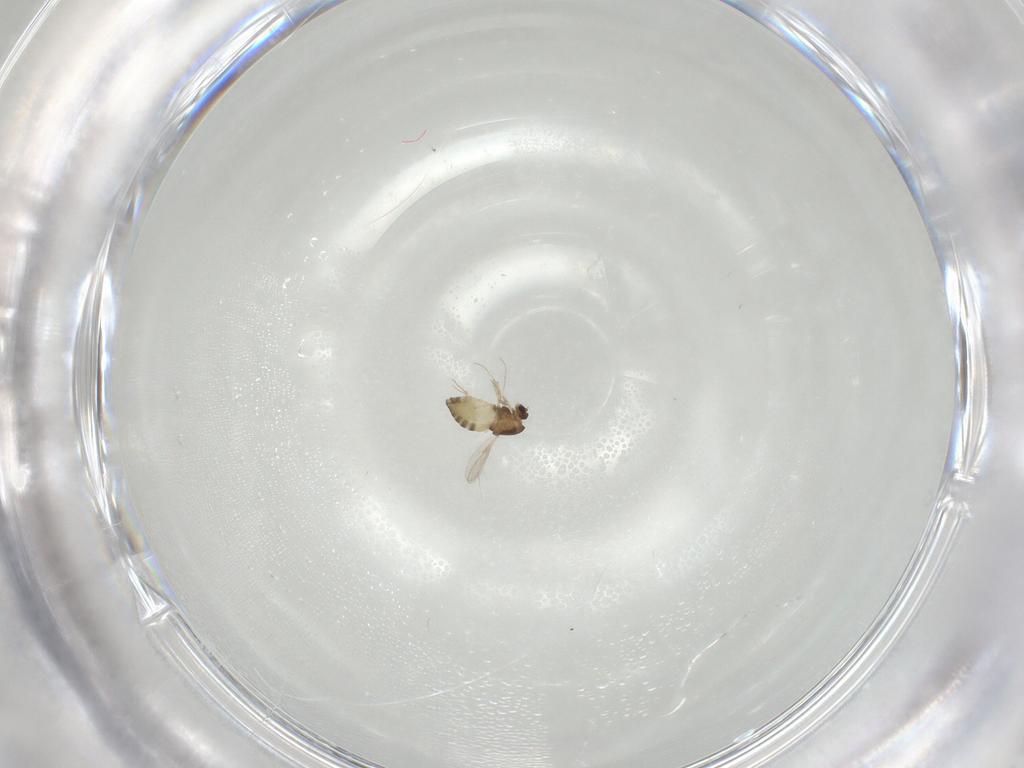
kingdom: Animalia
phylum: Arthropoda
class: Insecta
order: Diptera
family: Chironomidae
